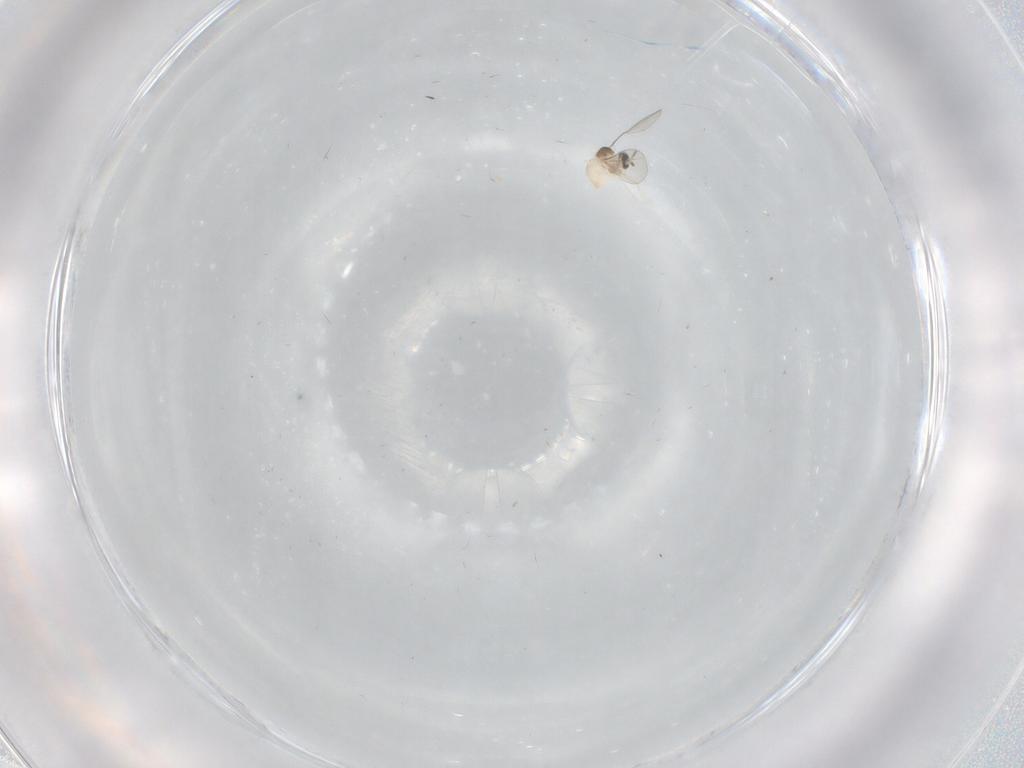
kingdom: Animalia
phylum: Arthropoda
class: Insecta
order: Diptera
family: Cecidomyiidae
